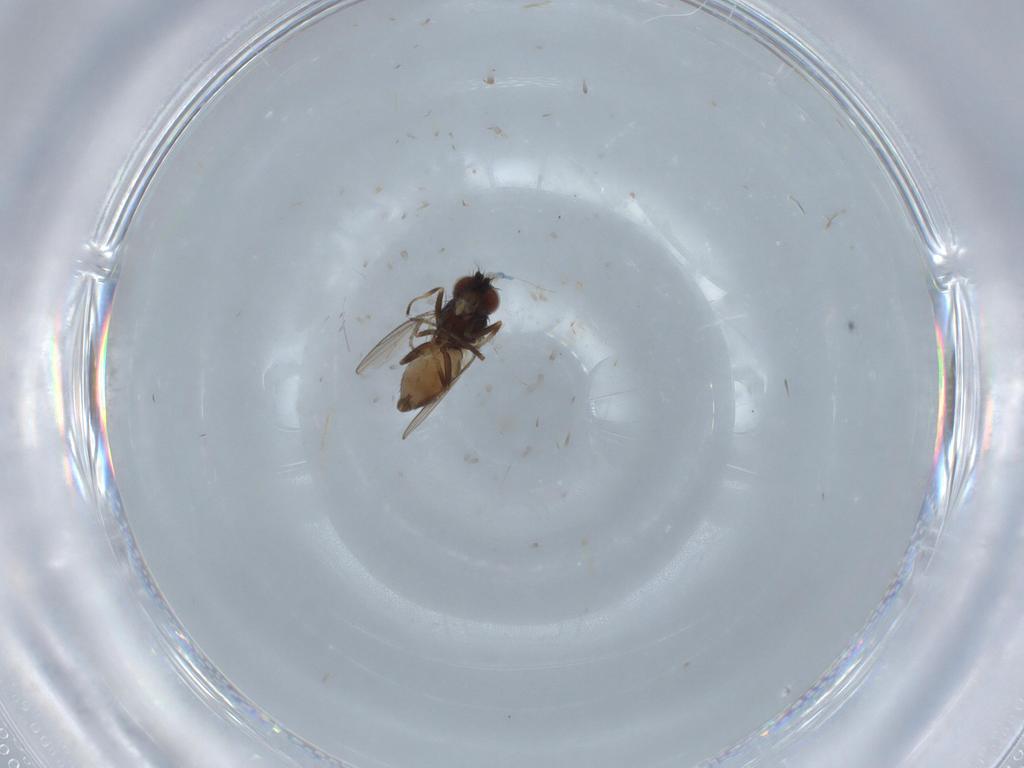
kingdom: Animalia
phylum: Arthropoda
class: Insecta
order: Diptera
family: Ephydridae
